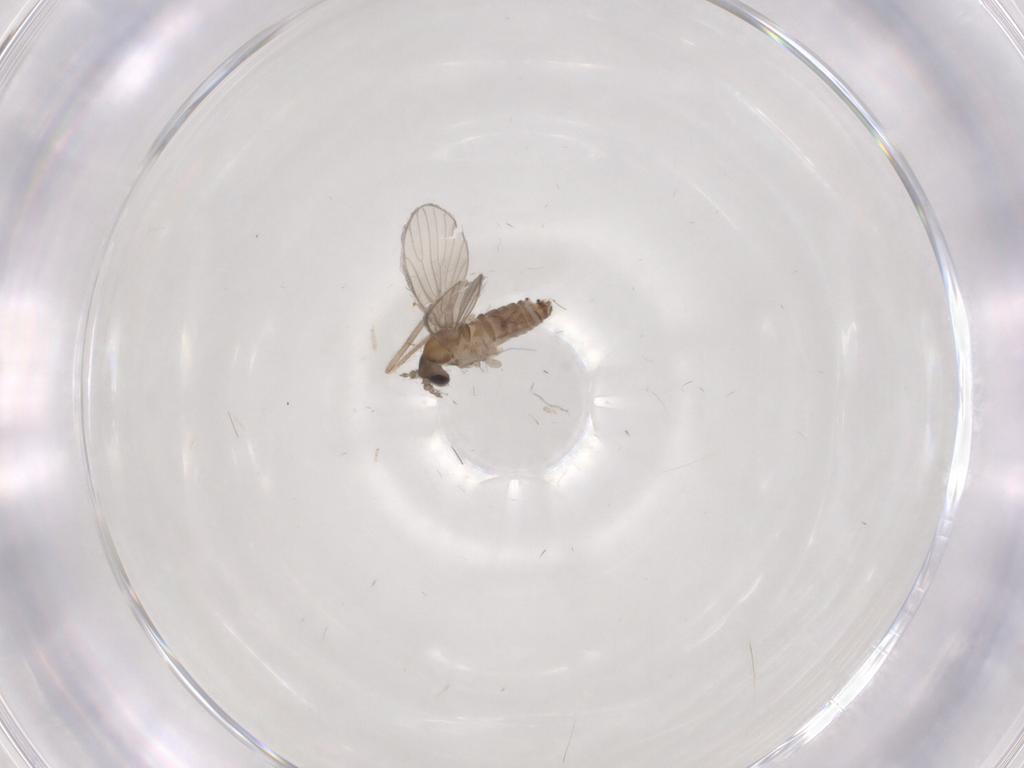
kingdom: Animalia
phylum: Arthropoda
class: Insecta
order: Diptera
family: Chironomidae
